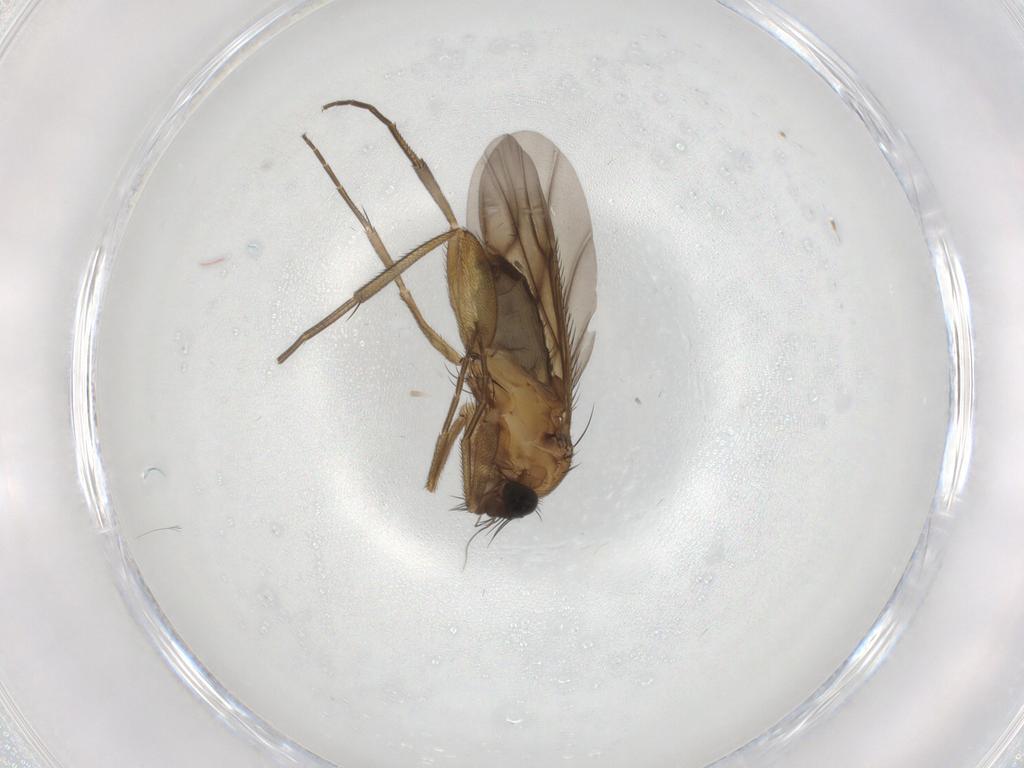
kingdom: Animalia
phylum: Arthropoda
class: Insecta
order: Diptera
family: Phoridae
